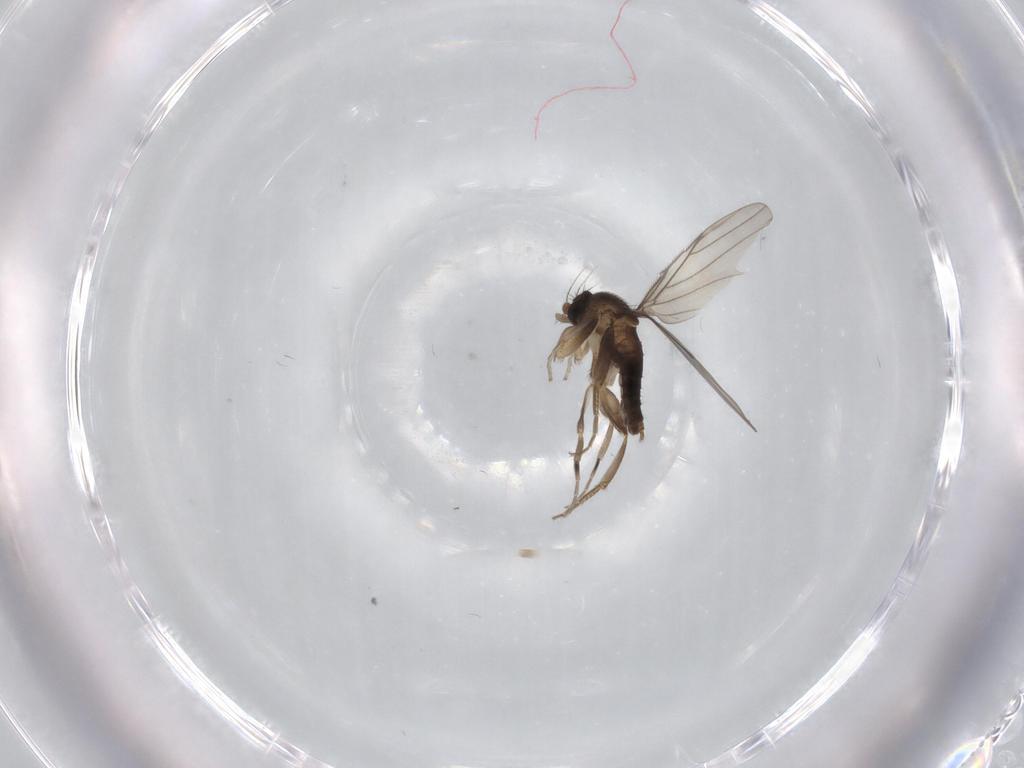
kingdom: Animalia
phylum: Arthropoda
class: Insecta
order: Diptera
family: Phoridae
